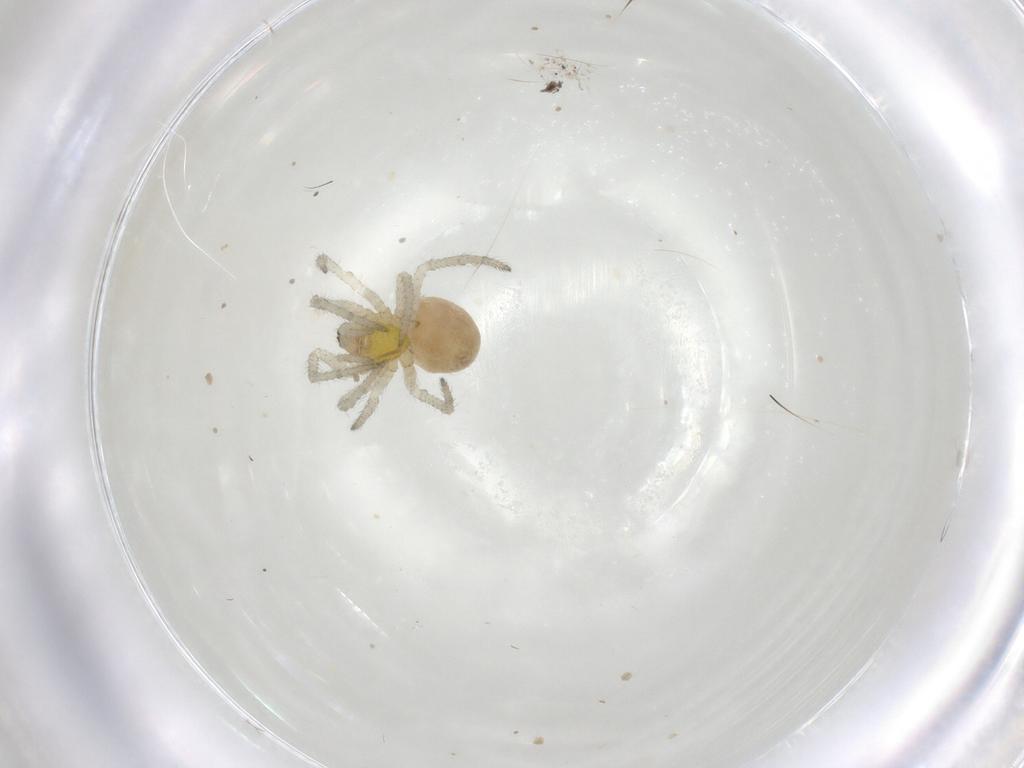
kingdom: Animalia
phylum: Arthropoda
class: Arachnida
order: Araneae
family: Theridiidae
